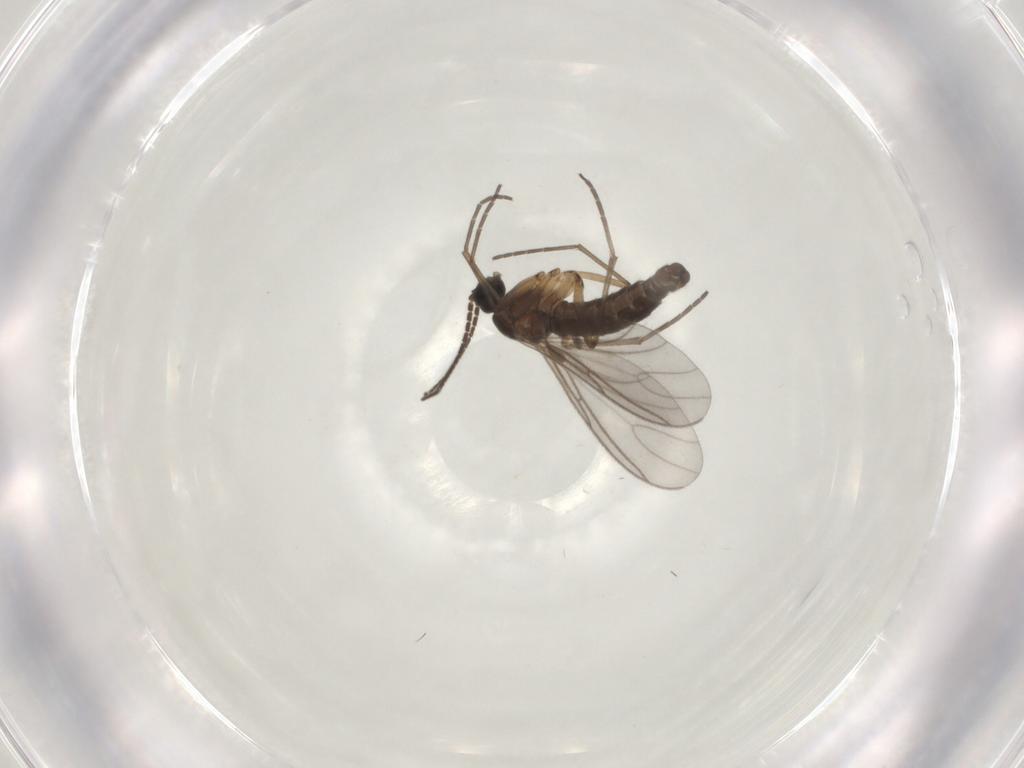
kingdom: Animalia
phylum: Arthropoda
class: Insecta
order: Diptera
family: Sciaridae
